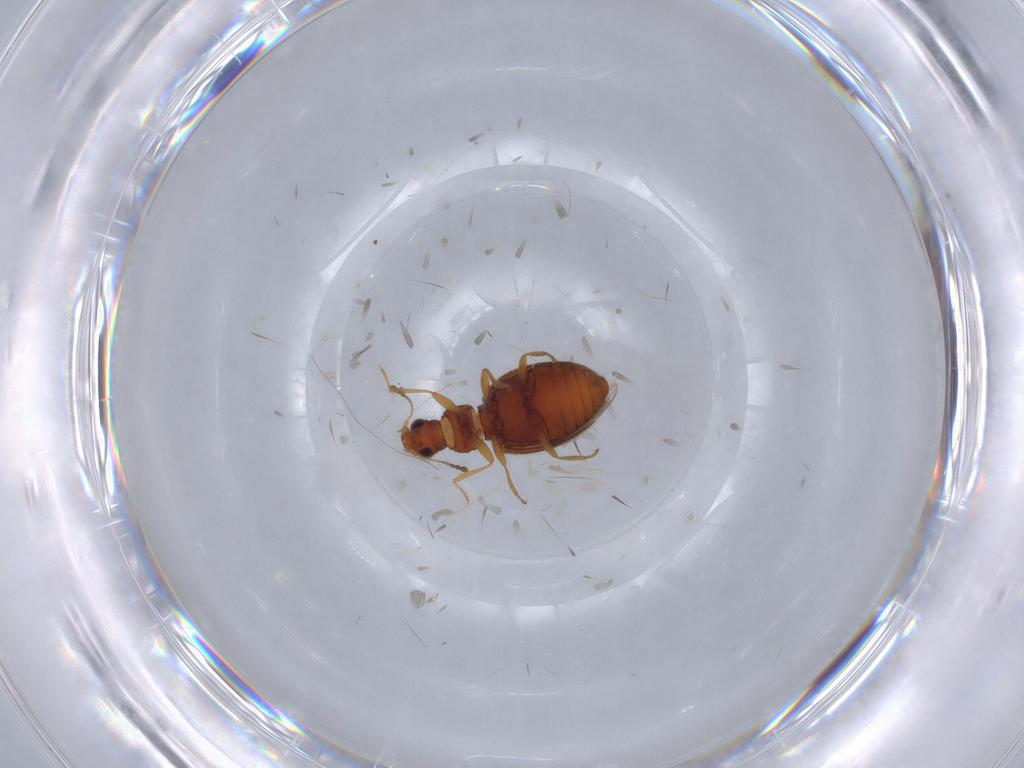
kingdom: Animalia
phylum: Arthropoda
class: Insecta
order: Coleoptera
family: Latridiidae
